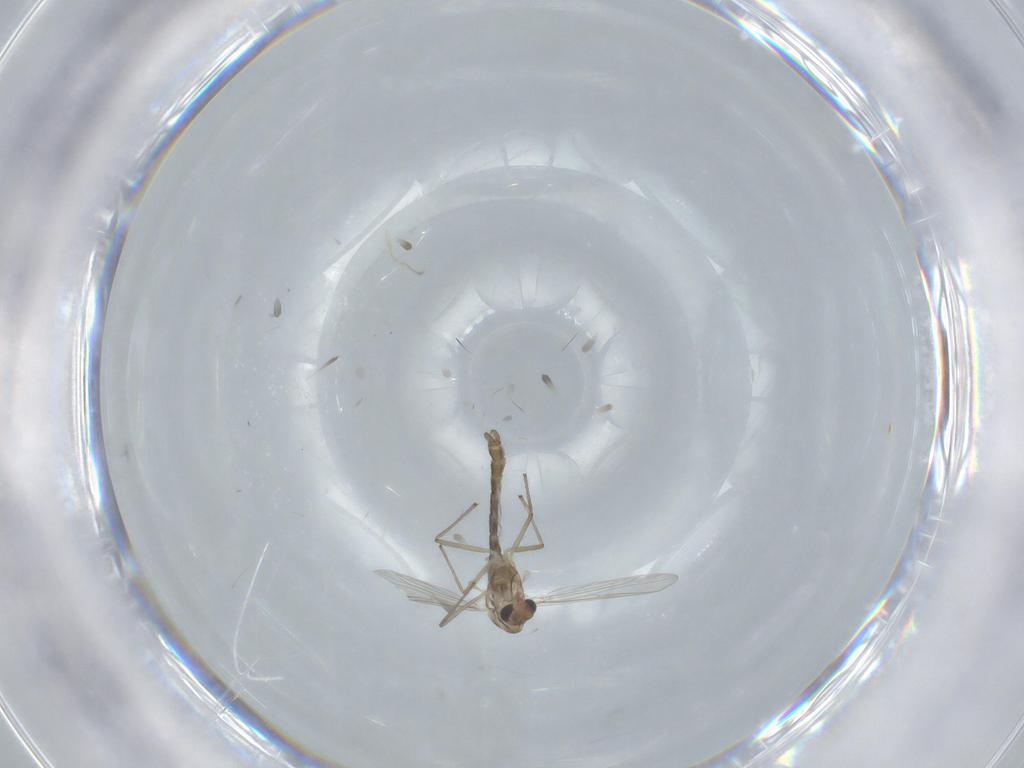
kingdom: Animalia
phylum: Arthropoda
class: Insecta
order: Diptera
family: Chironomidae
